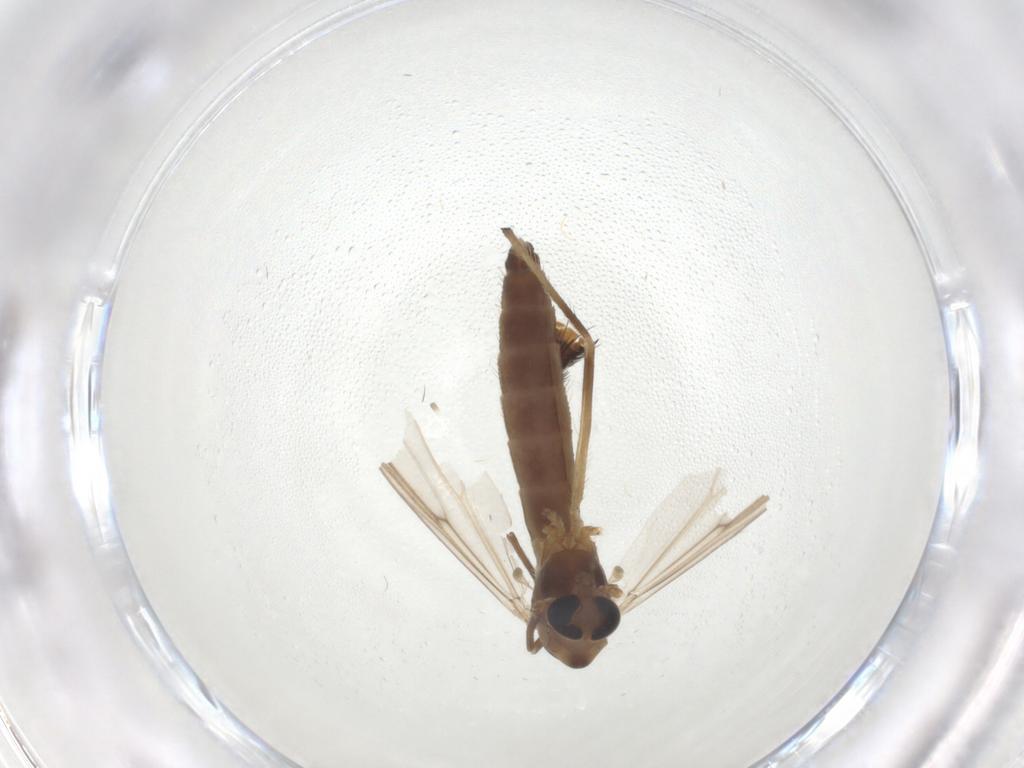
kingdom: Animalia
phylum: Arthropoda
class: Insecta
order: Diptera
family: Chironomidae
